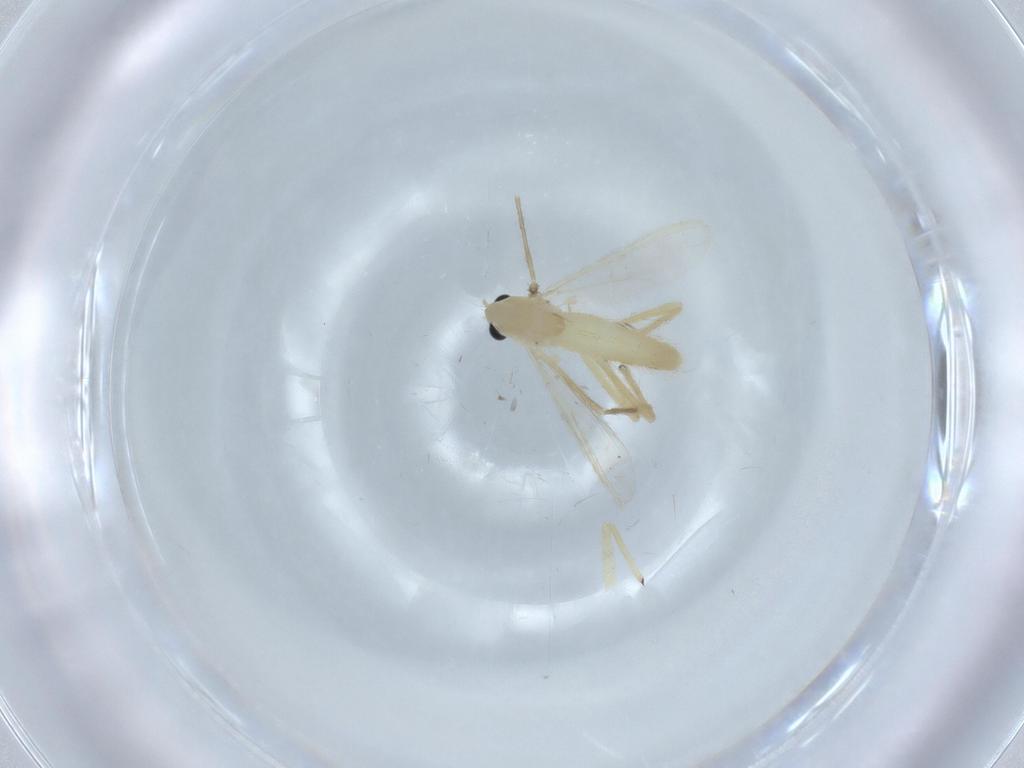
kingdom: Animalia
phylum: Arthropoda
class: Insecta
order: Diptera
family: Chironomidae
